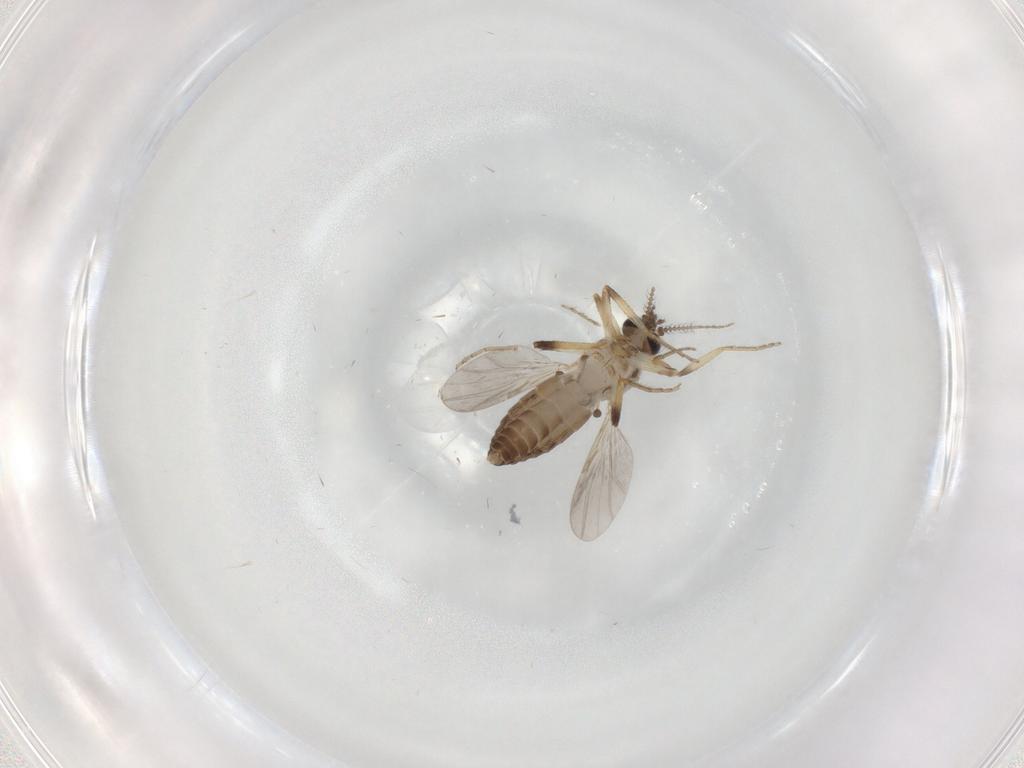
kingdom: Animalia
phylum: Arthropoda
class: Insecta
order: Diptera
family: Ceratopogonidae
